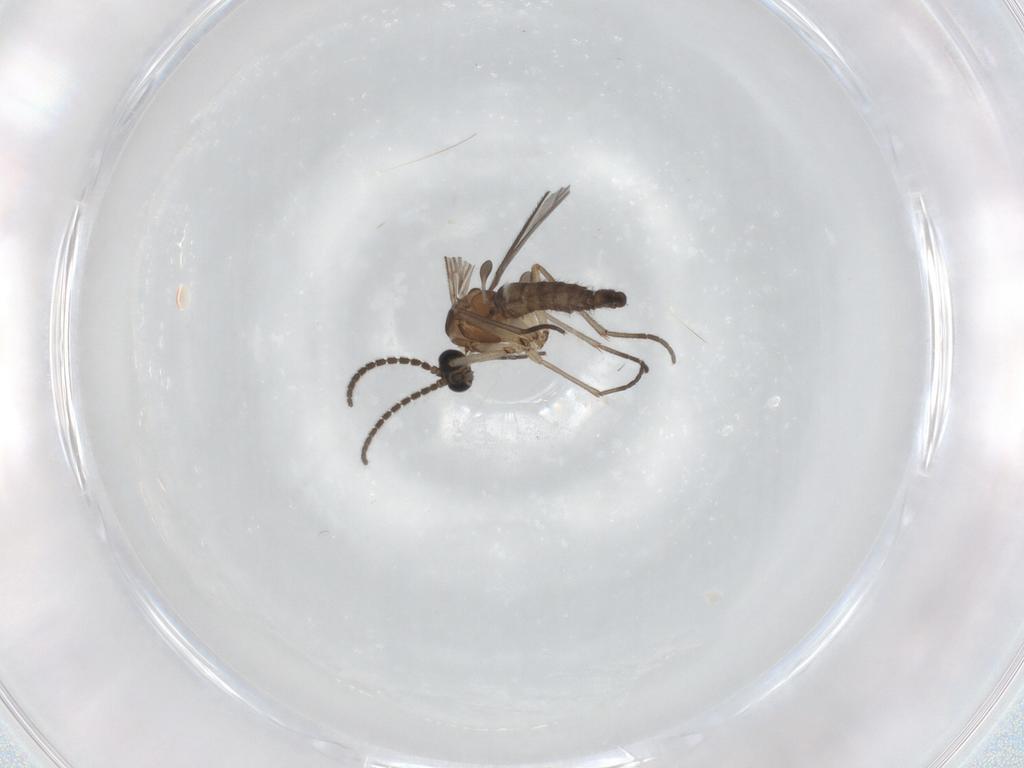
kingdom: Animalia
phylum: Arthropoda
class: Insecta
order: Diptera
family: Sciaridae
